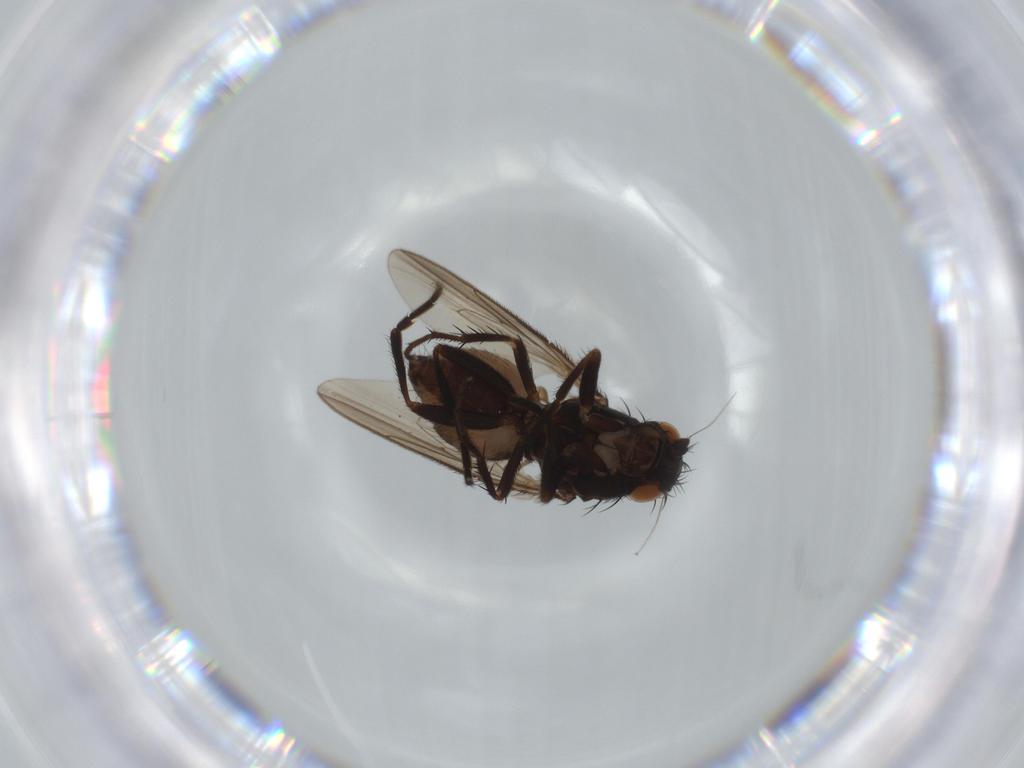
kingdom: Animalia
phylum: Arthropoda
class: Insecta
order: Diptera
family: Sphaeroceridae
